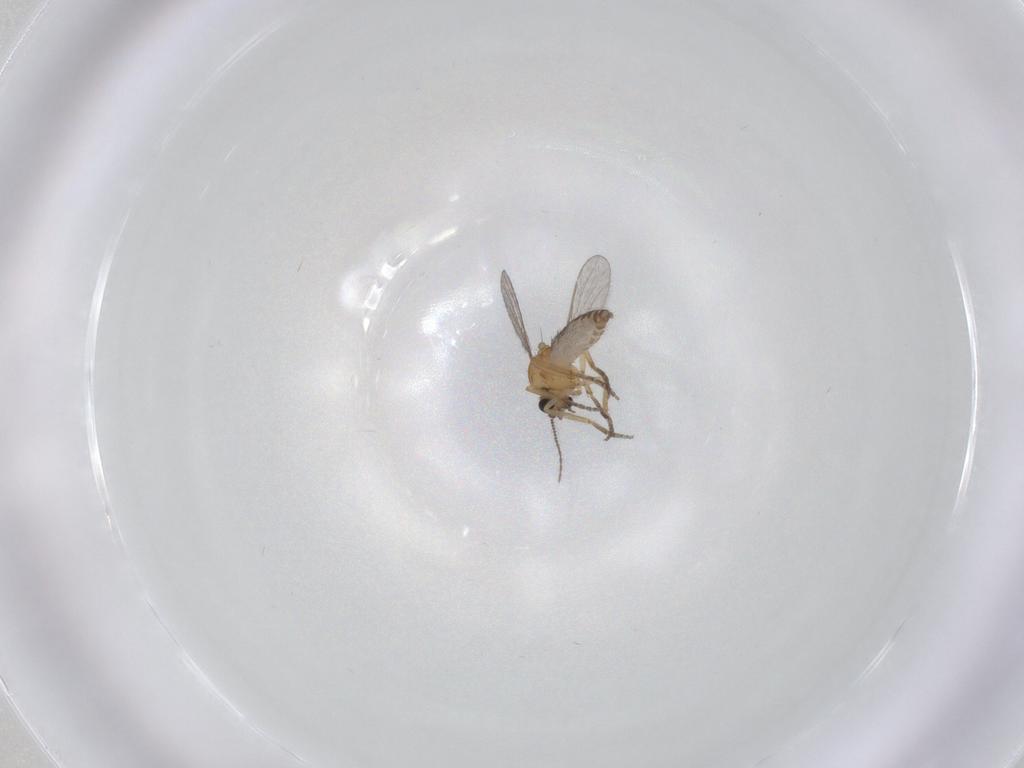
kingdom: Animalia
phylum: Arthropoda
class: Insecta
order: Diptera
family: Ceratopogonidae
